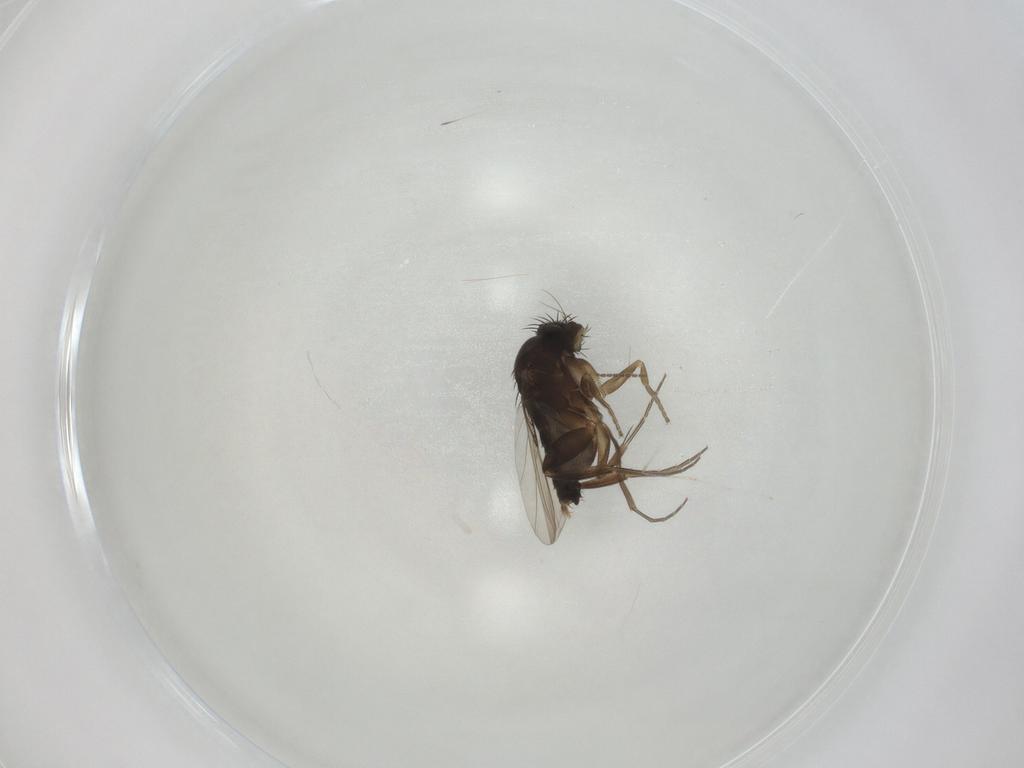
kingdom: Animalia
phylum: Arthropoda
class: Insecta
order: Diptera
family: Phoridae
